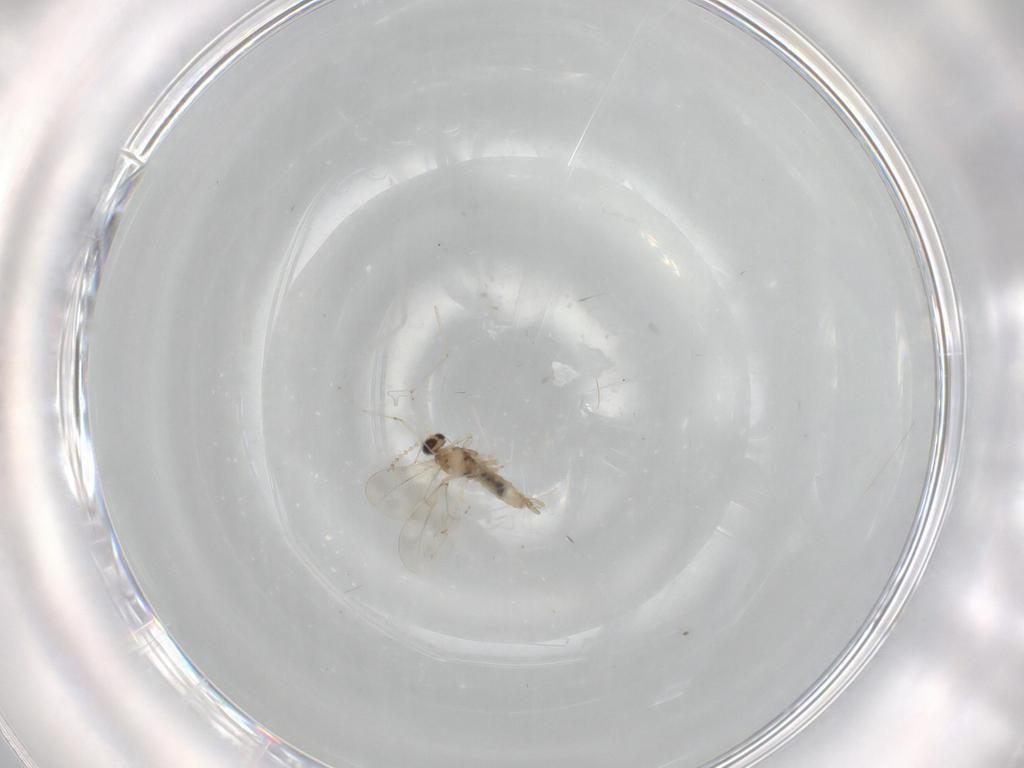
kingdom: Animalia
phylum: Arthropoda
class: Insecta
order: Diptera
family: Cecidomyiidae
